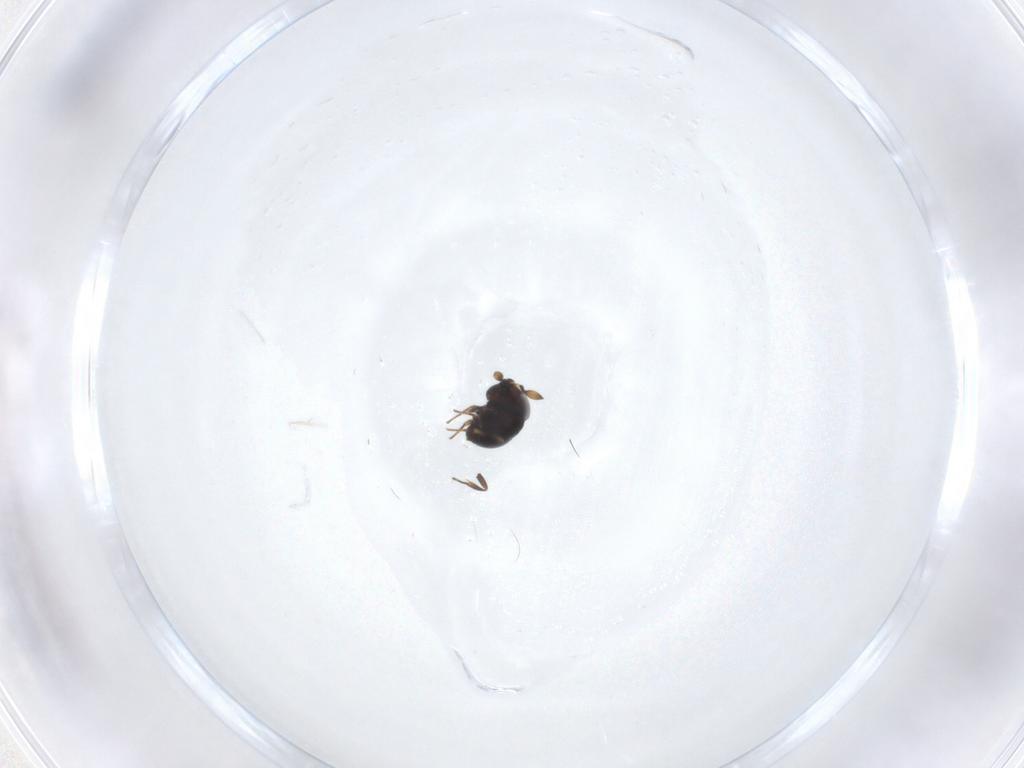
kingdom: Animalia
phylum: Arthropoda
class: Insecta
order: Hymenoptera
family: Scelionidae
